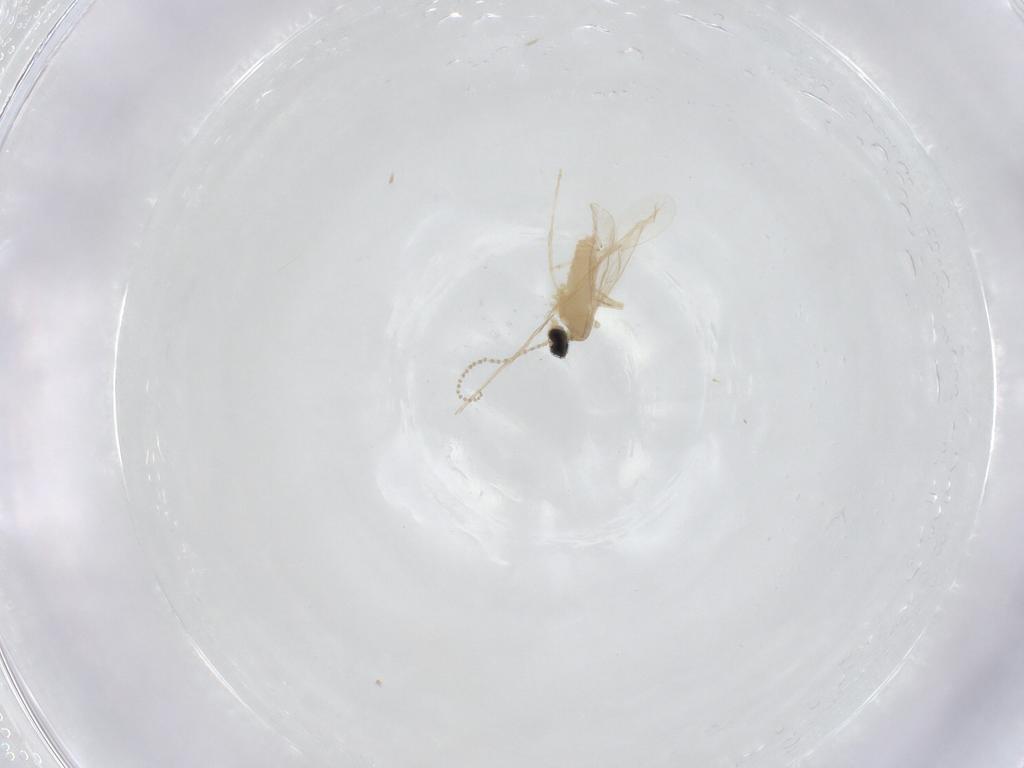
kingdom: Animalia
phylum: Arthropoda
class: Insecta
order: Diptera
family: Cecidomyiidae
